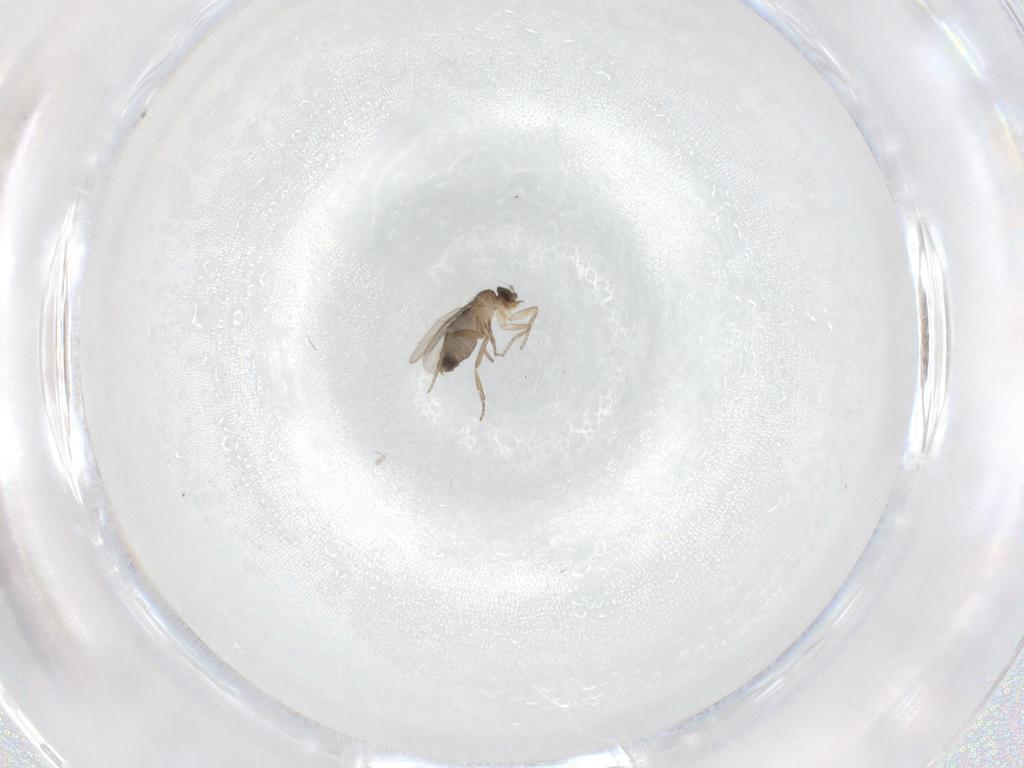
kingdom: Animalia
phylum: Arthropoda
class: Insecta
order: Diptera
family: Phoridae
